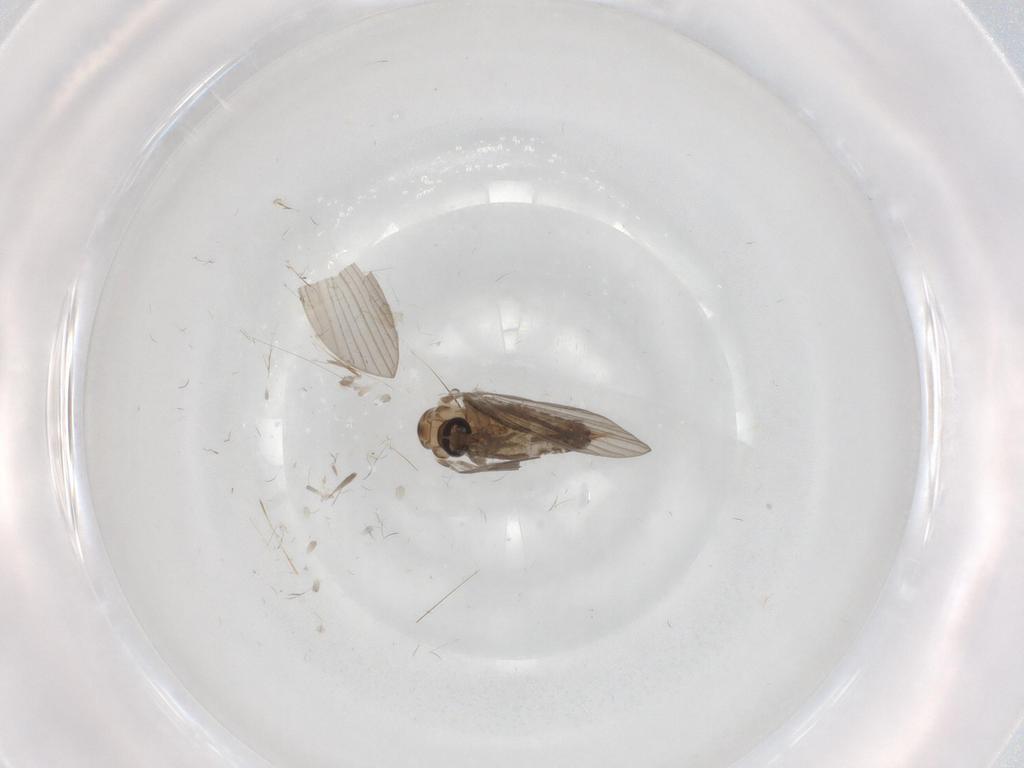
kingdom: Animalia
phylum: Arthropoda
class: Insecta
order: Diptera
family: Psychodidae
